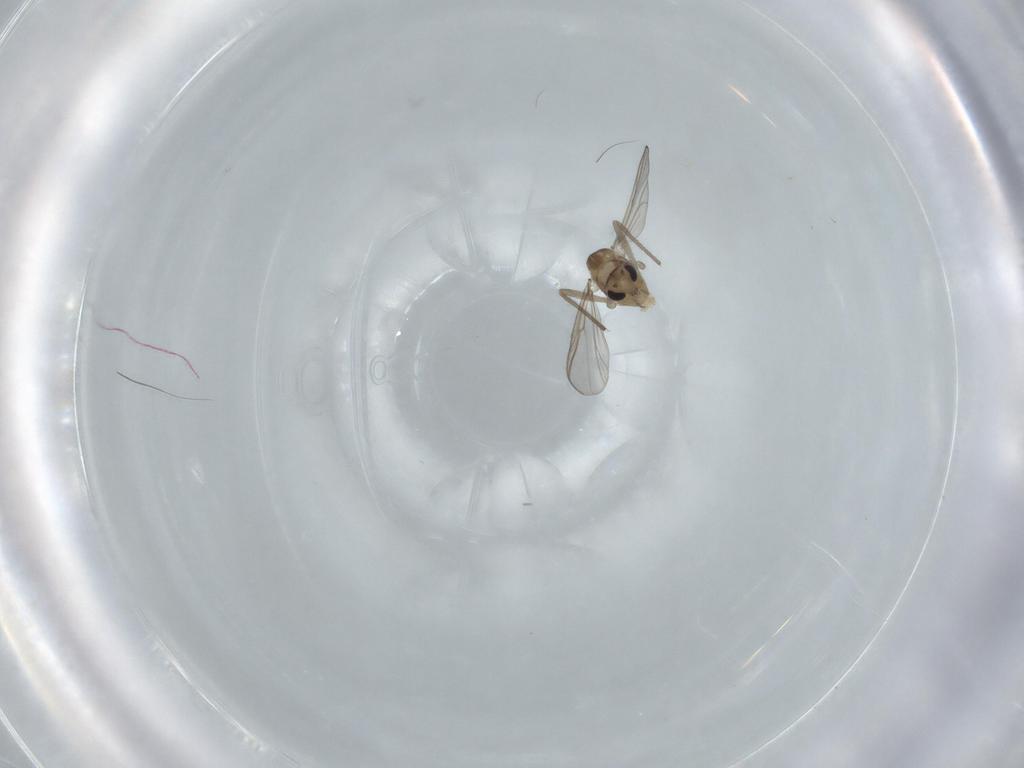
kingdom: Animalia
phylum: Arthropoda
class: Insecta
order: Diptera
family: Chironomidae
